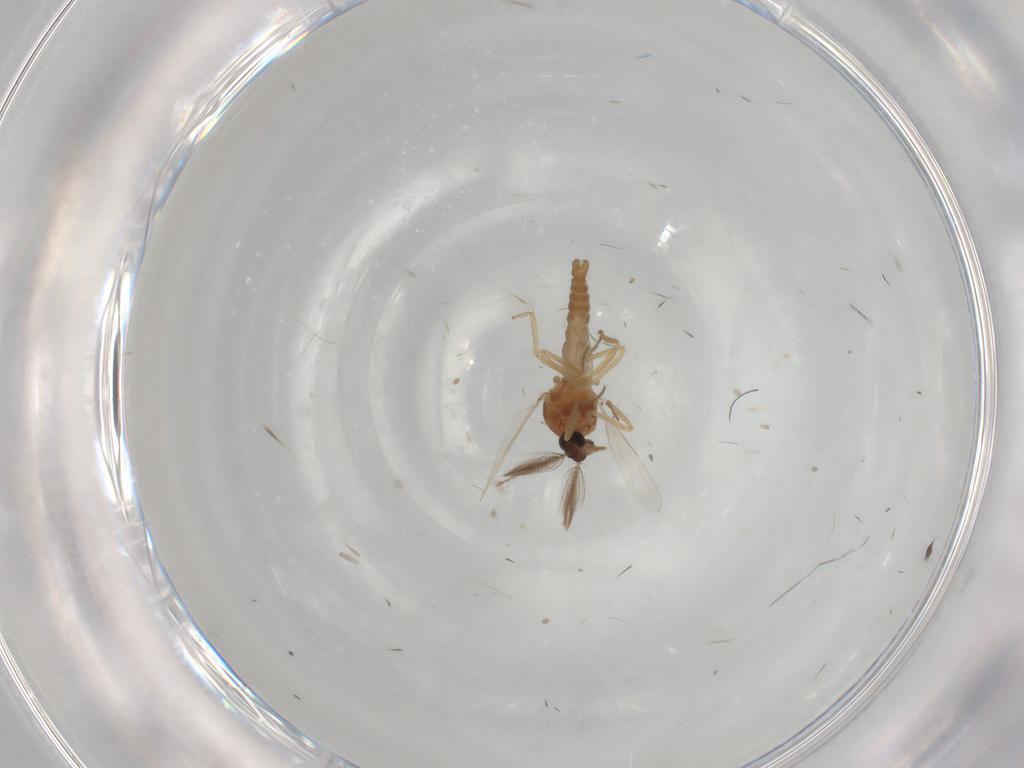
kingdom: Animalia
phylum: Arthropoda
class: Insecta
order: Diptera
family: Ceratopogonidae
